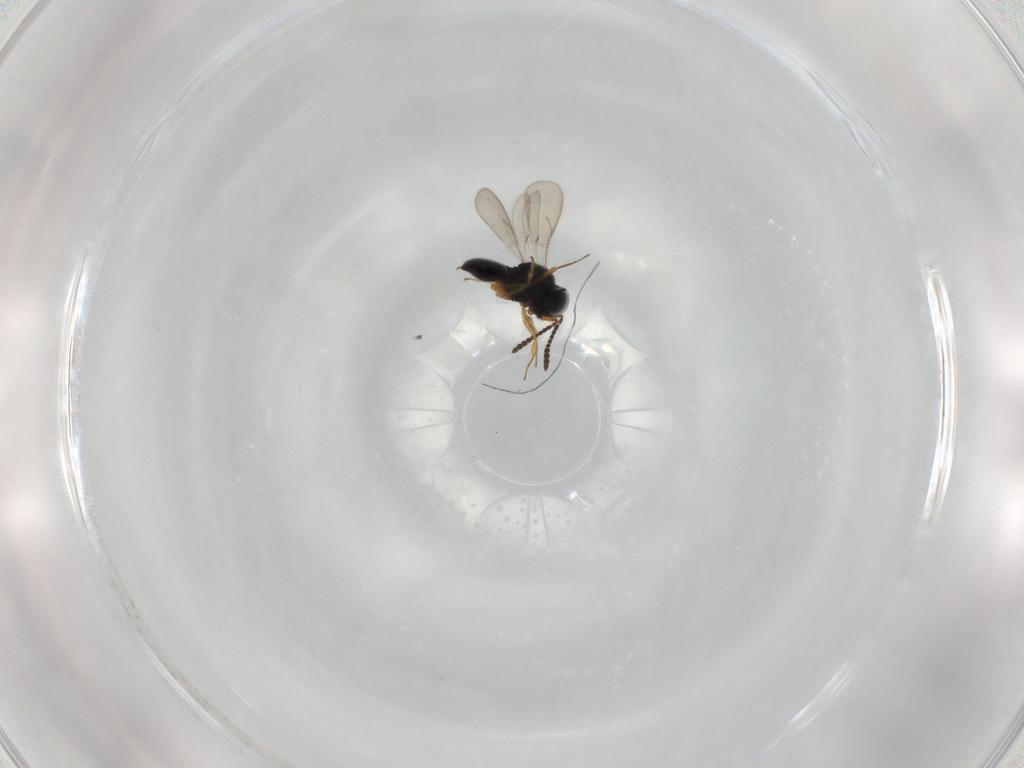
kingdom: Animalia
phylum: Arthropoda
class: Insecta
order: Hymenoptera
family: Scelionidae
